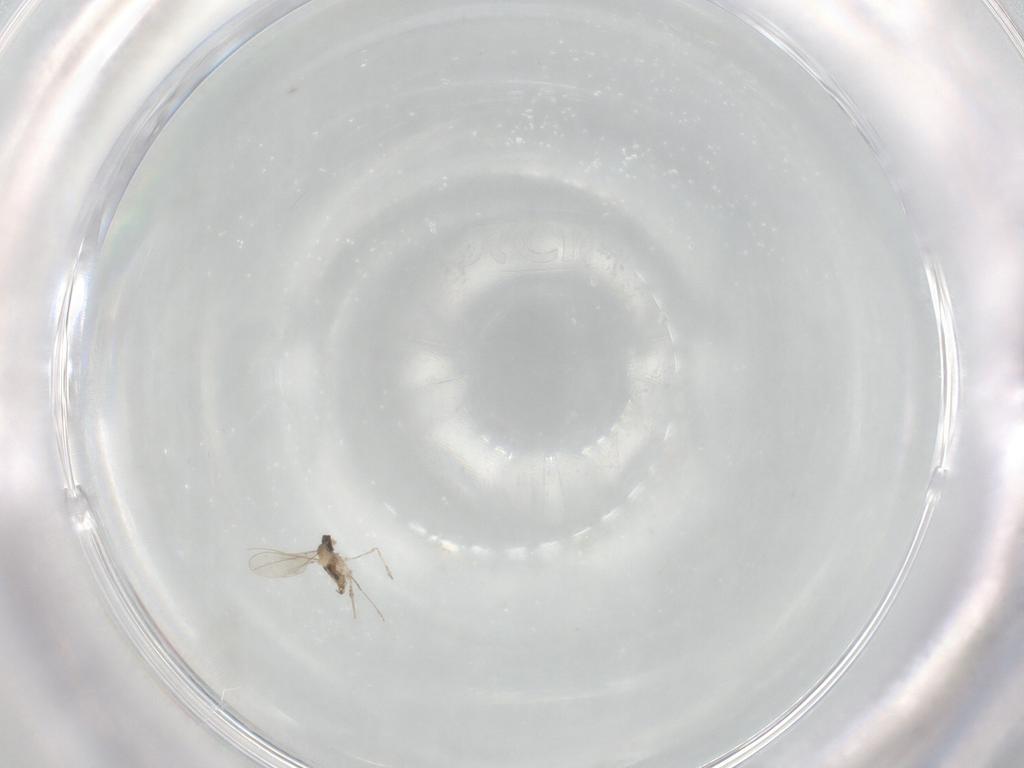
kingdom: Animalia
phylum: Arthropoda
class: Insecta
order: Diptera
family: Cecidomyiidae
